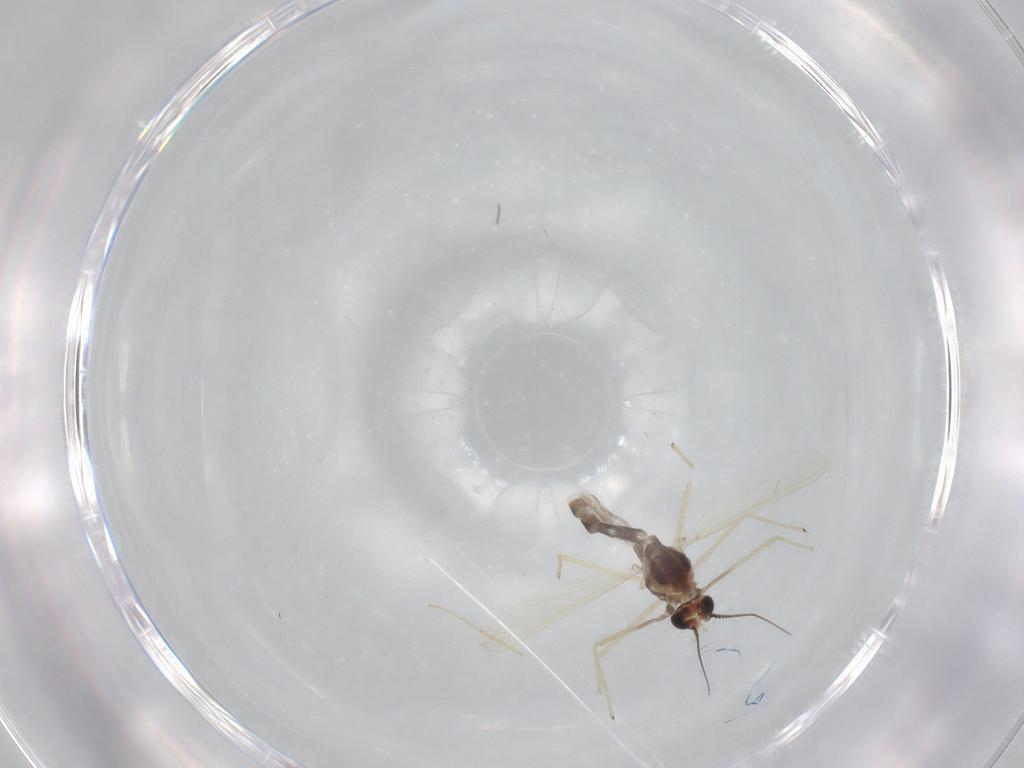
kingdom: Animalia
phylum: Arthropoda
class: Insecta
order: Diptera
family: Chironomidae
